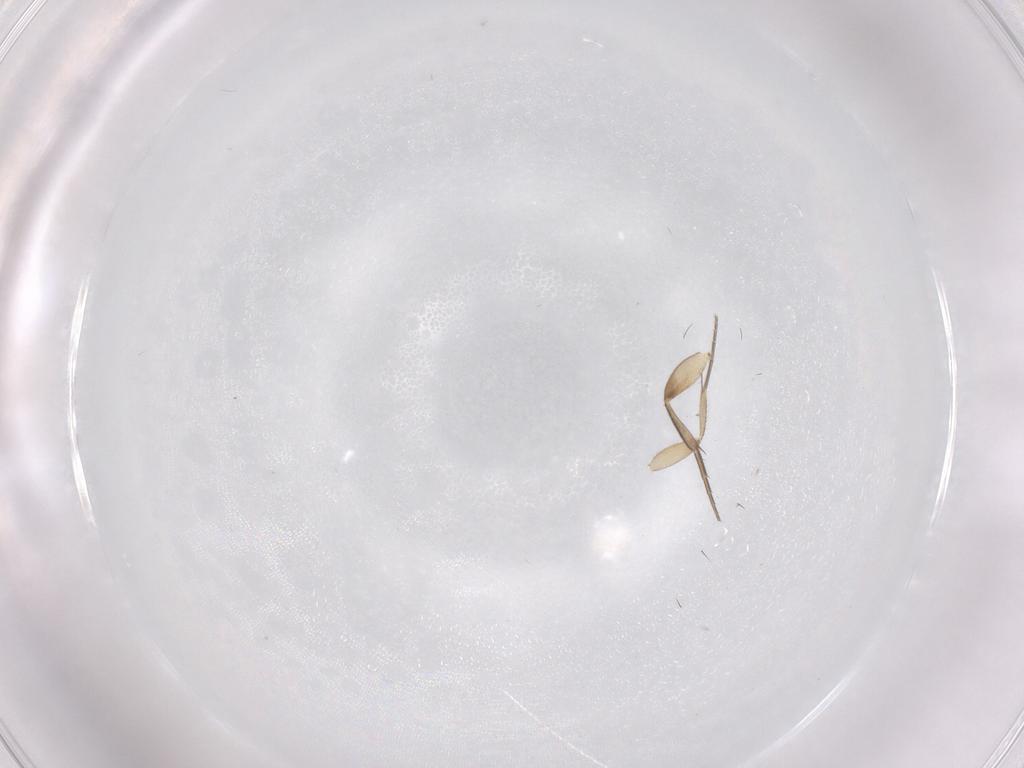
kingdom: Animalia
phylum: Arthropoda
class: Insecta
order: Diptera
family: Phoridae
